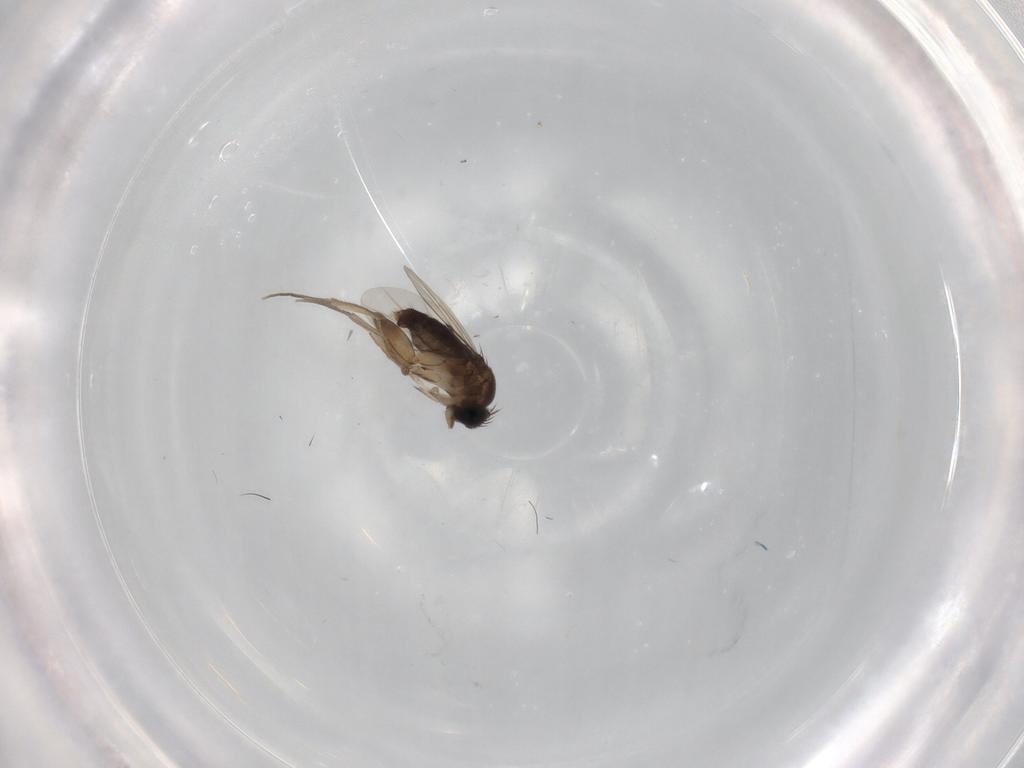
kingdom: Animalia
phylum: Arthropoda
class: Insecta
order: Diptera
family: Phoridae
